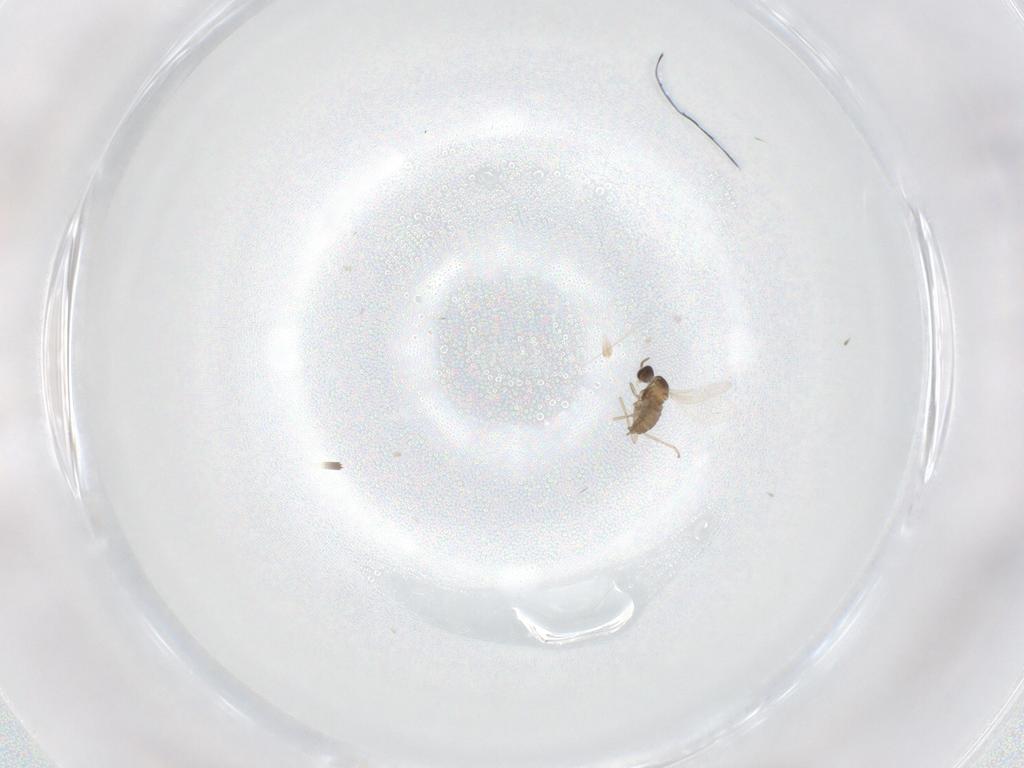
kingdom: Animalia
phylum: Arthropoda
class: Insecta
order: Diptera
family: Cecidomyiidae
